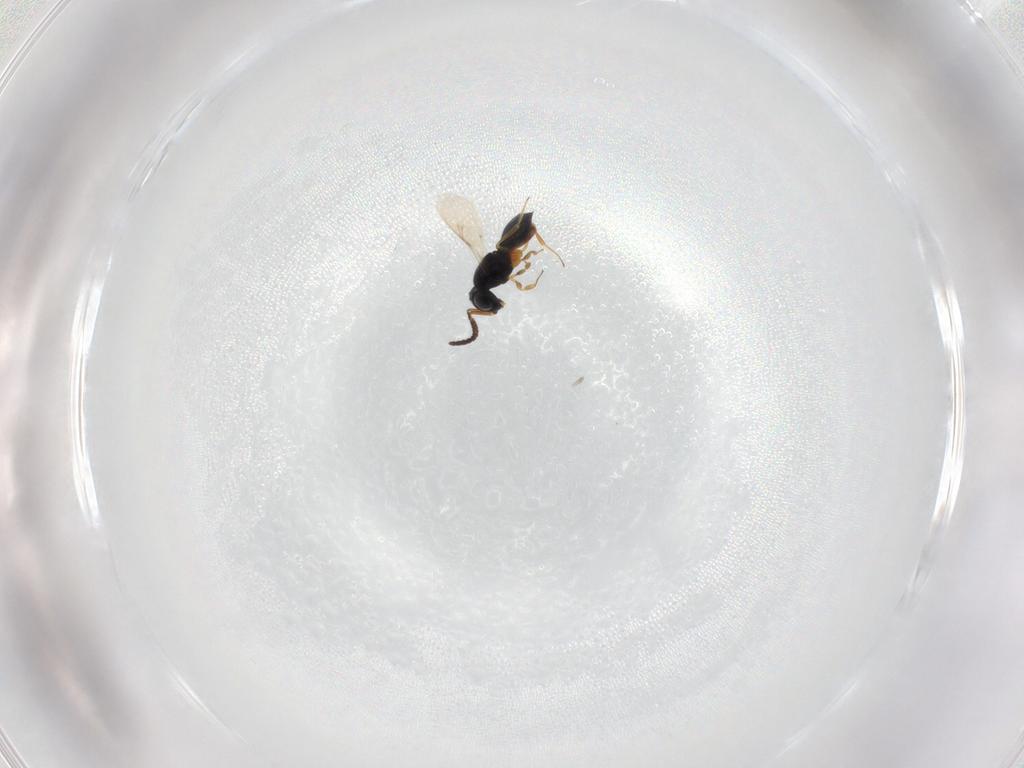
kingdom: Animalia
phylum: Arthropoda
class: Insecta
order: Hymenoptera
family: Scelionidae
